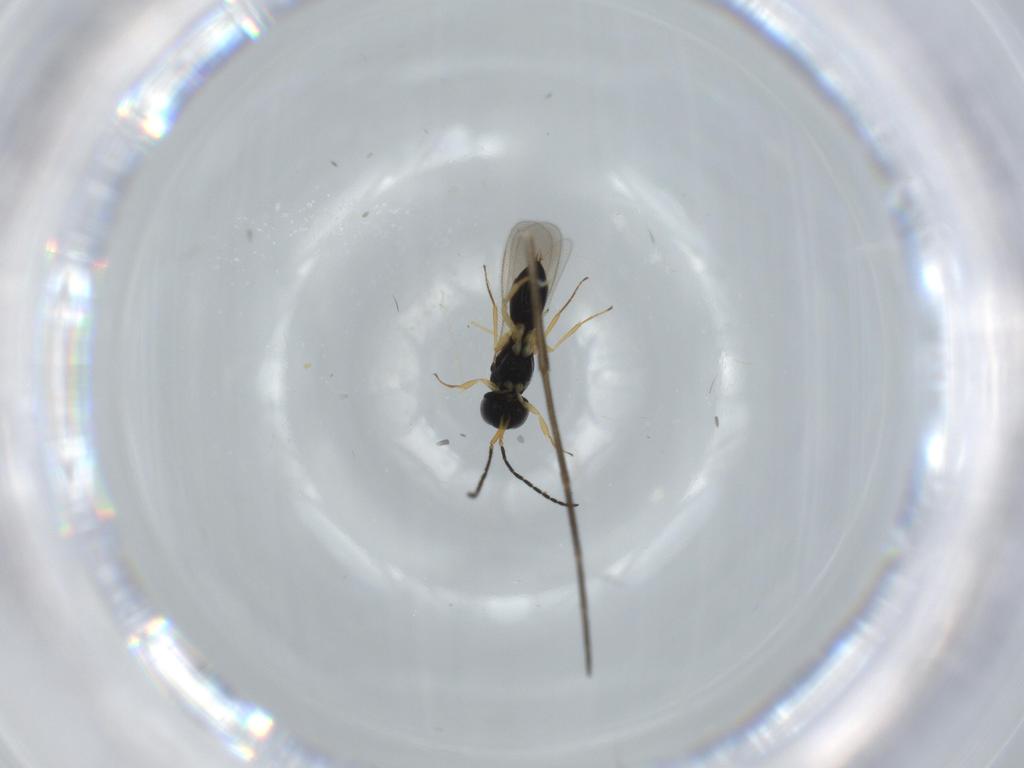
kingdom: Animalia
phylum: Arthropoda
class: Insecta
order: Hymenoptera
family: Scelionidae
